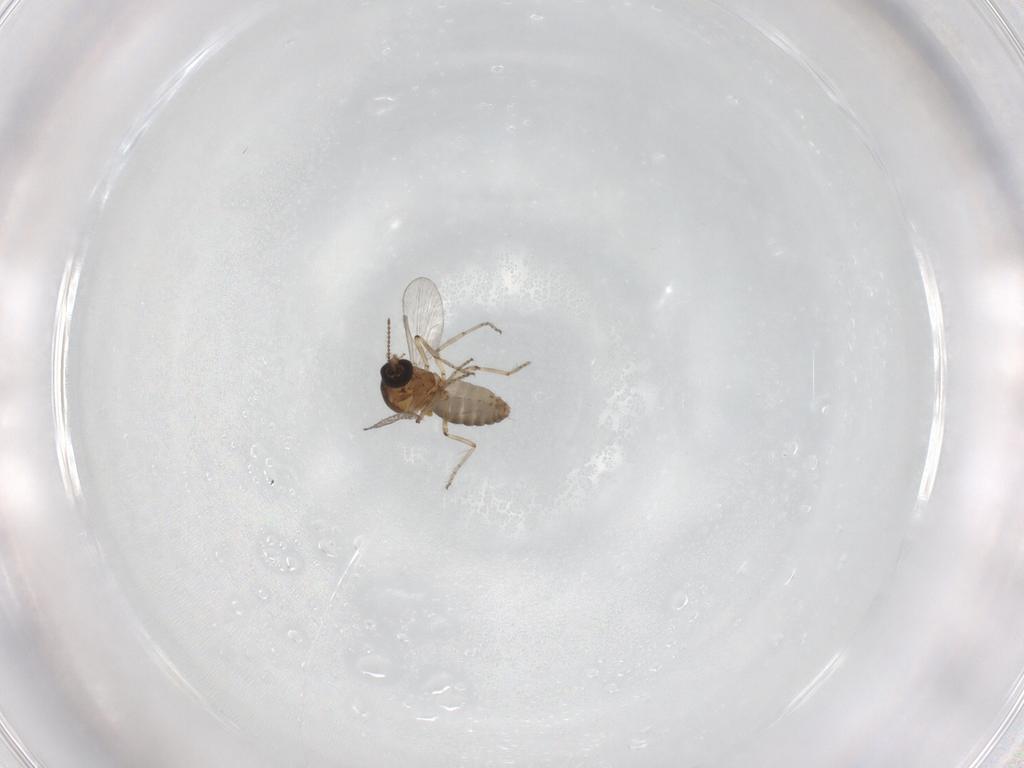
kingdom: Animalia
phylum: Arthropoda
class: Insecta
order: Diptera
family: Ceratopogonidae
